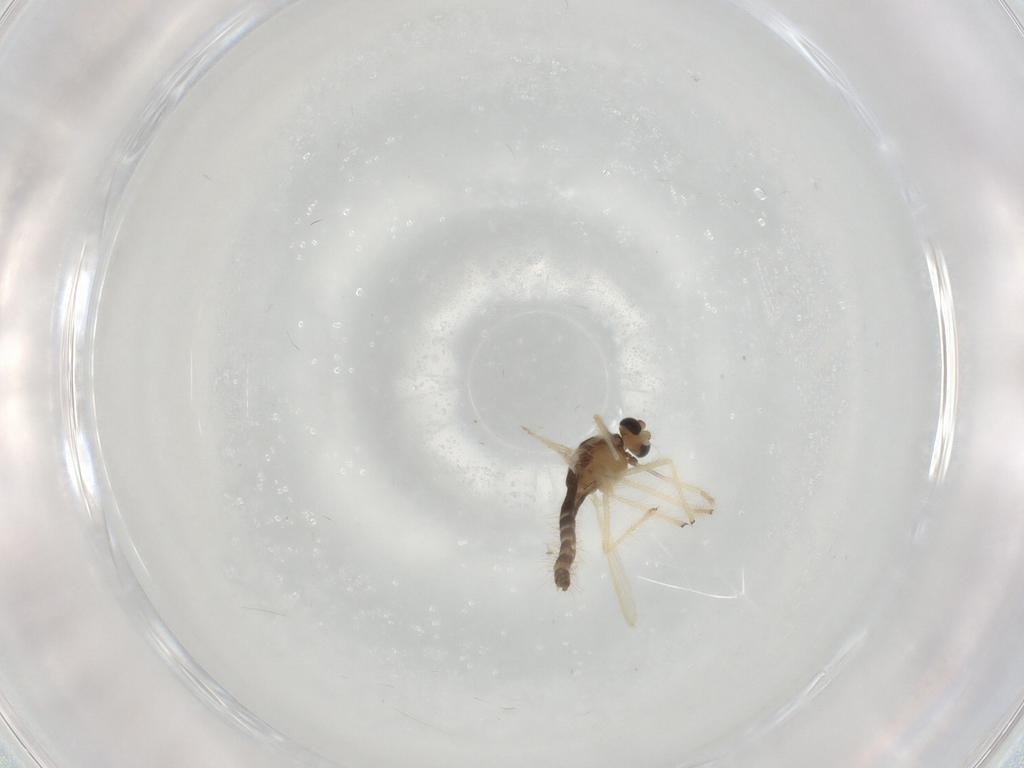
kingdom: Animalia
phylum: Arthropoda
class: Insecta
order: Diptera
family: Chironomidae
